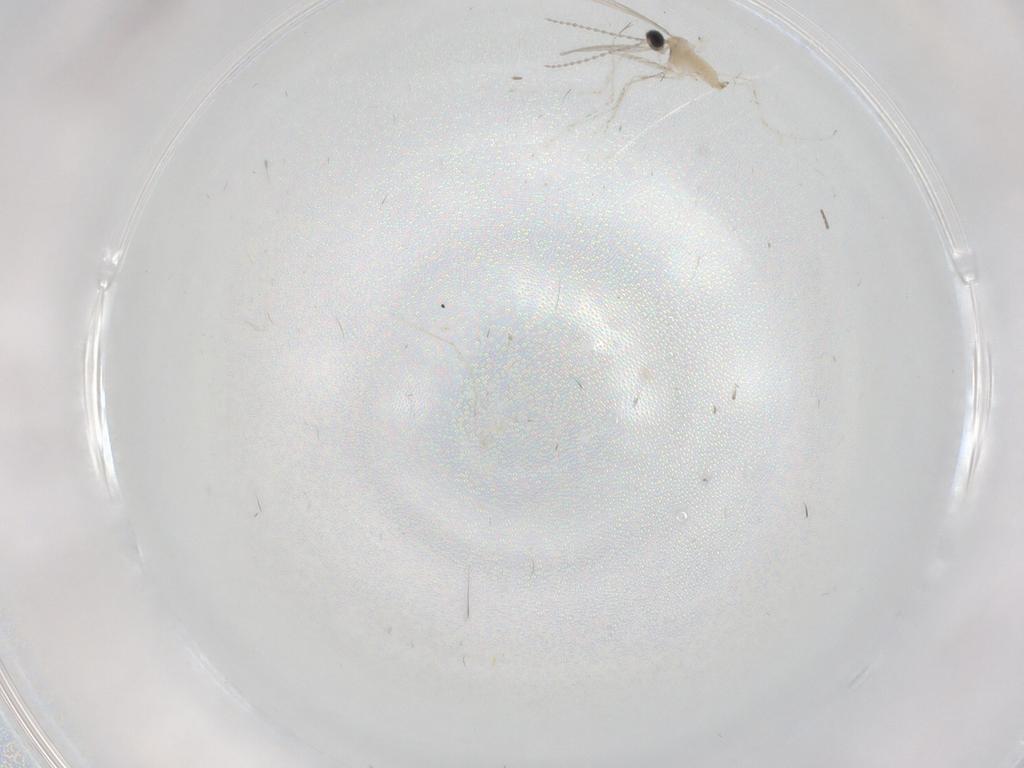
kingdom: Animalia
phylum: Arthropoda
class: Insecta
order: Diptera
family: Cecidomyiidae
